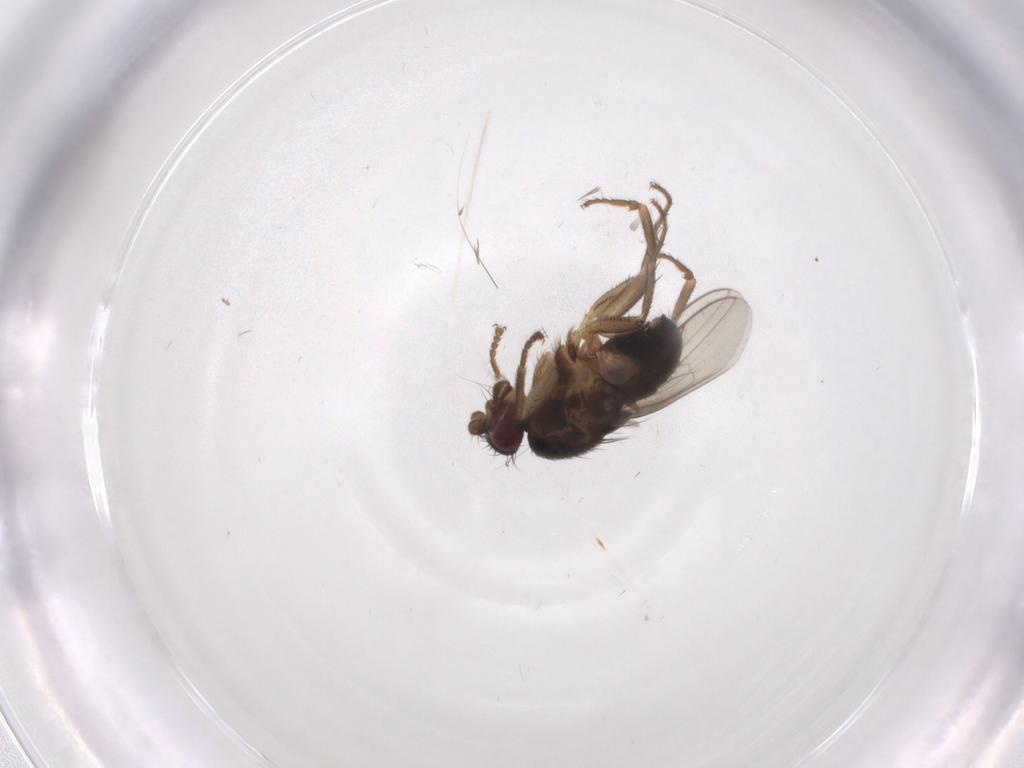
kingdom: Animalia
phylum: Arthropoda
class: Insecta
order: Diptera
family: Sphaeroceridae
